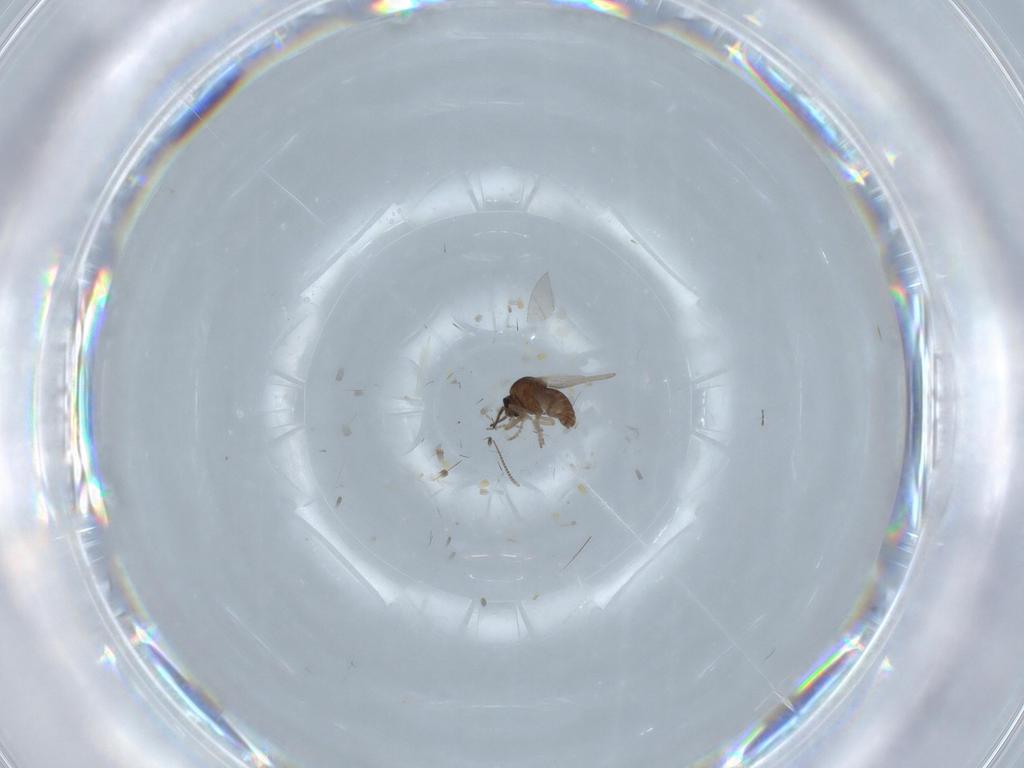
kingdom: Animalia
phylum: Arthropoda
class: Insecta
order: Diptera
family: Ceratopogonidae
